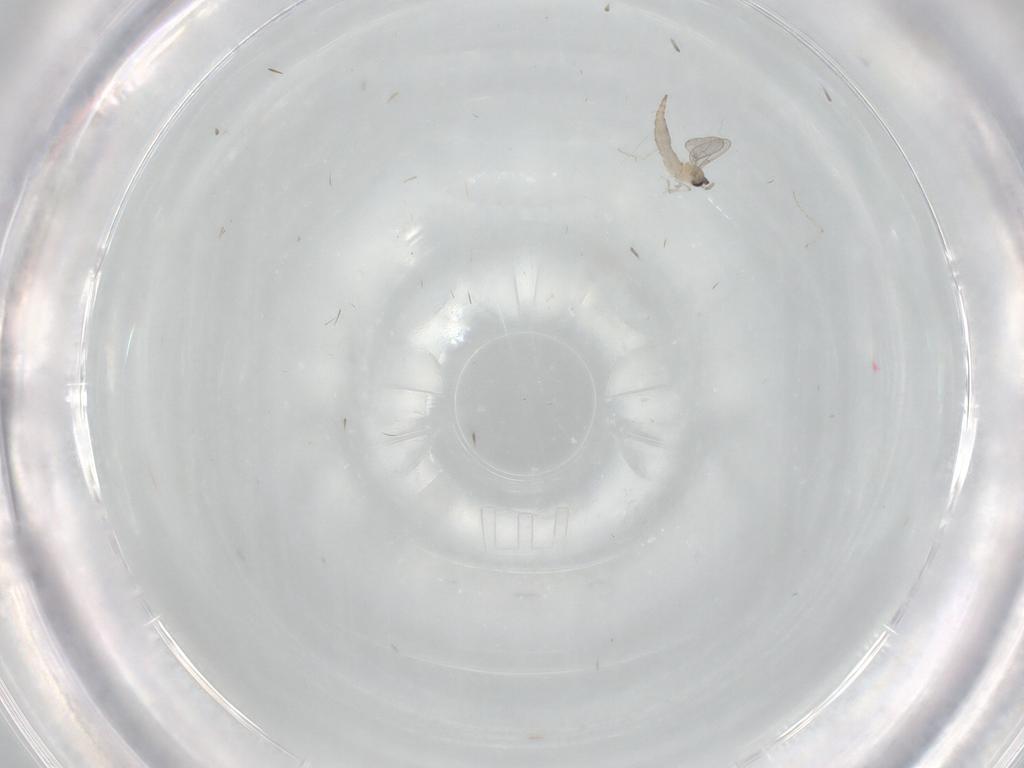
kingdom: Animalia
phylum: Arthropoda
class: Insecta
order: Diptera
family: Cecidomyiidae
